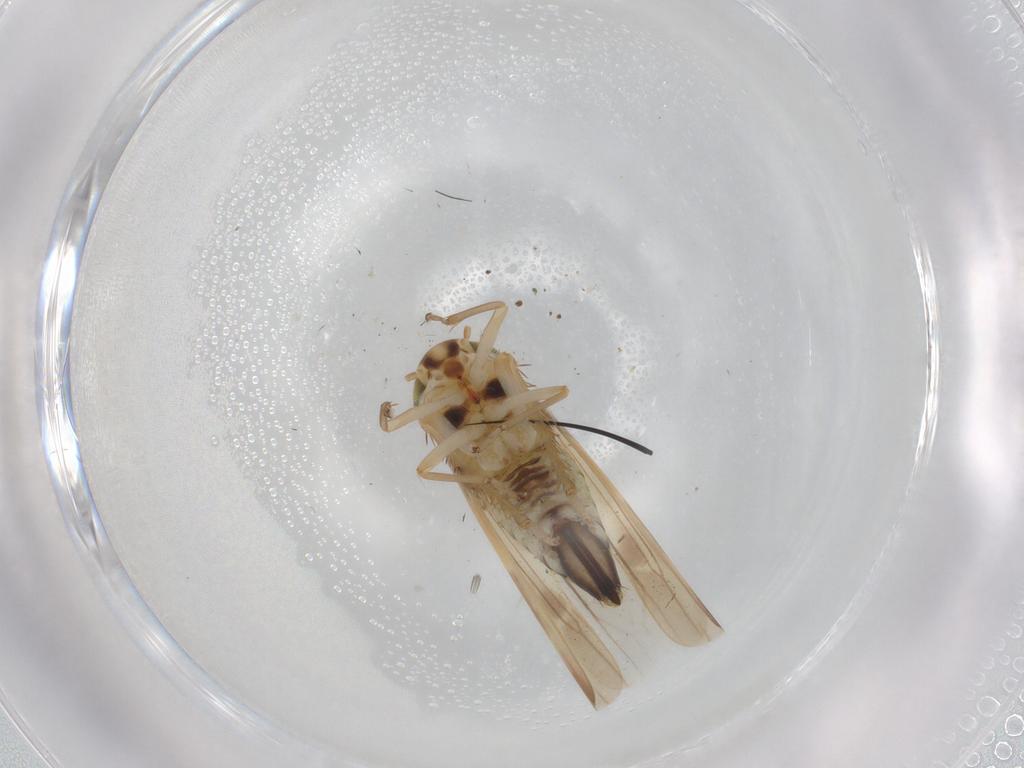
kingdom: Animalia
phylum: Arthropoda
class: Insecta
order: Hemiptera
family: Cicadellidae
